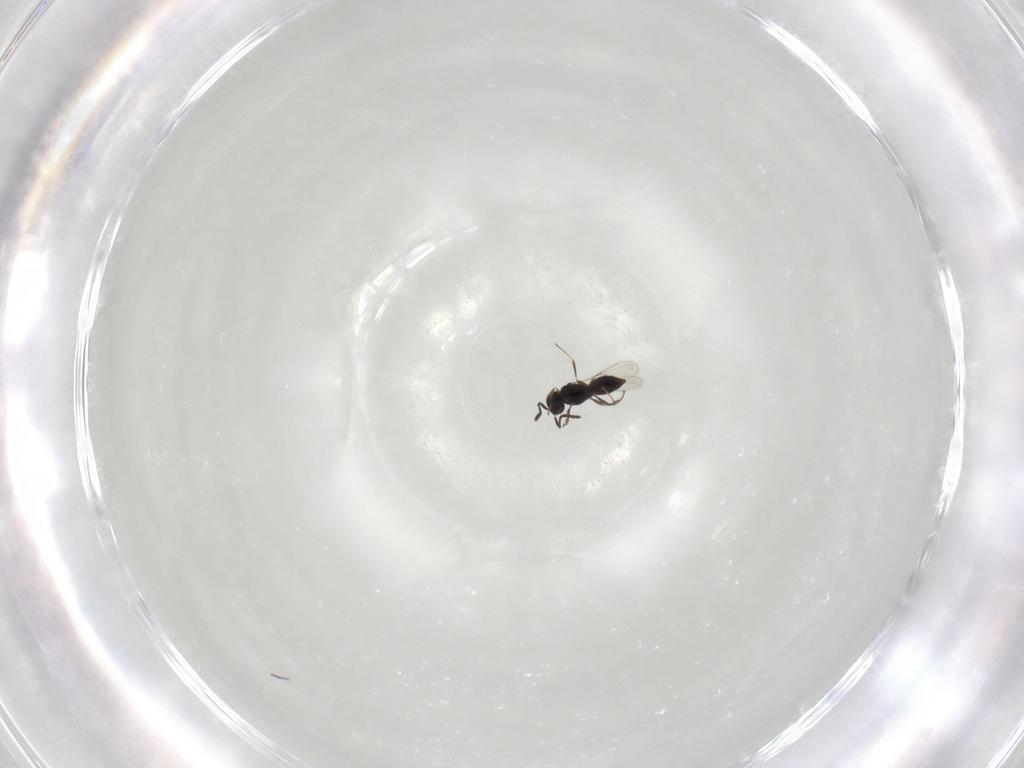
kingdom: Animalia
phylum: Arthropoda
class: Insecta
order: Hymenoptera
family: Scelionidae
